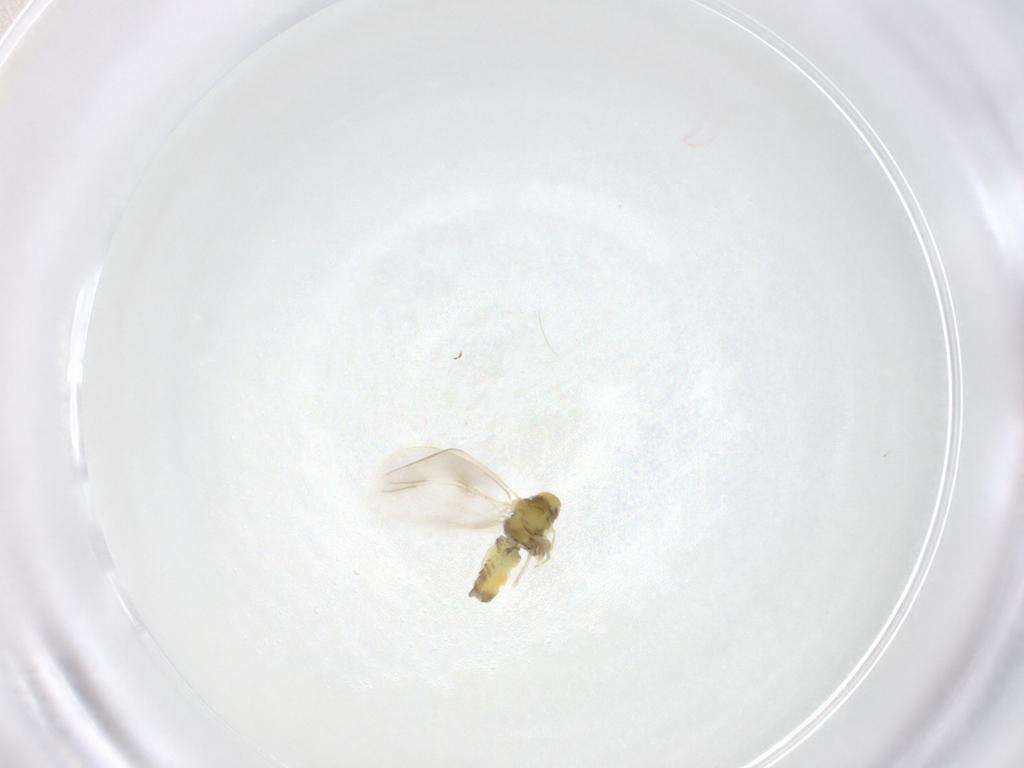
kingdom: Animalia
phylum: Arthropoda
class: Insecta
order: Hemiptera
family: Aleyrodidae
